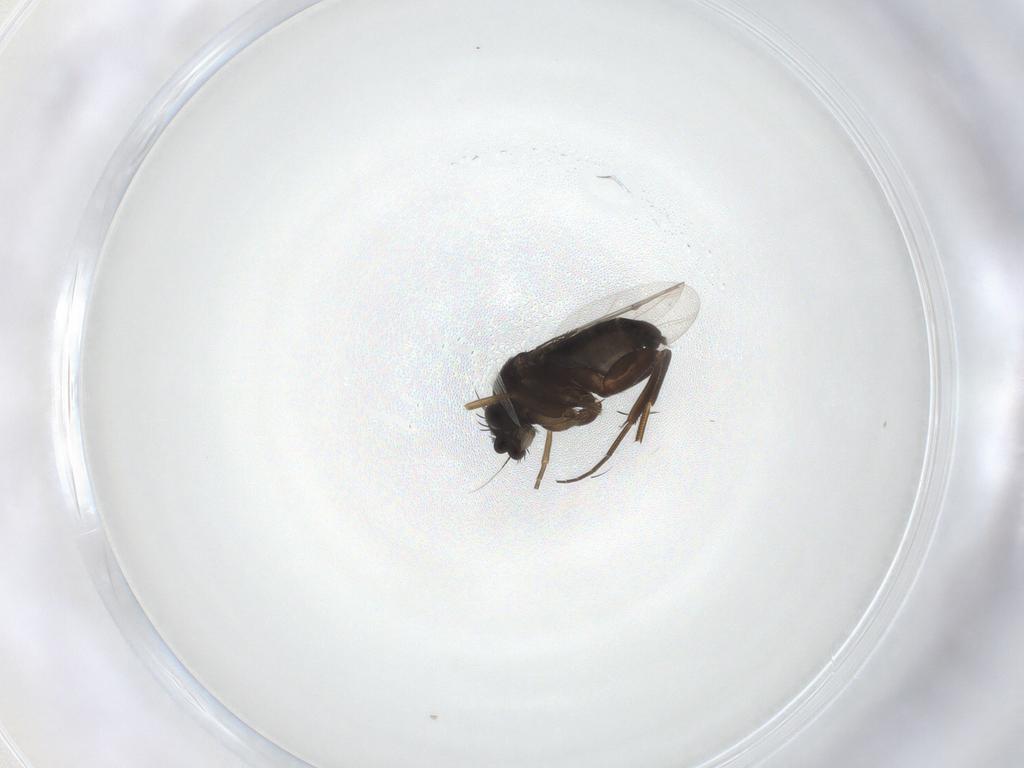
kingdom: Animalia
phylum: Arthropoda
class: Insecta
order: Diptera
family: Phoridae
